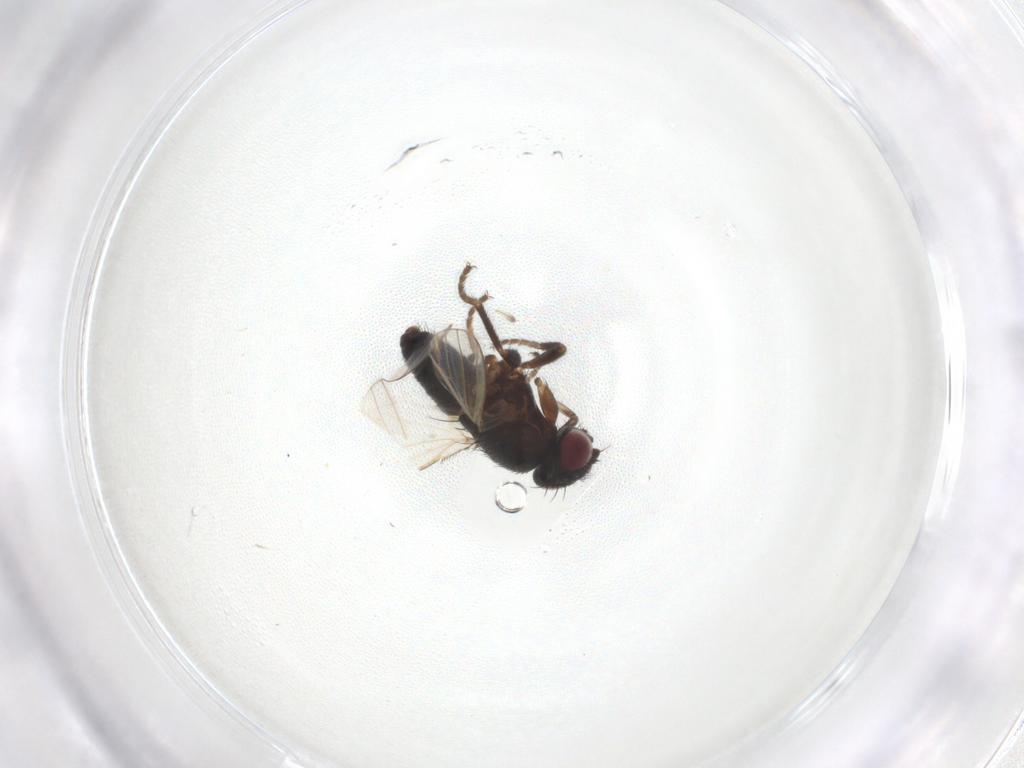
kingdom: Animalia
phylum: Arthropoda
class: Insecta
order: Diptera
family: Milichiidae
